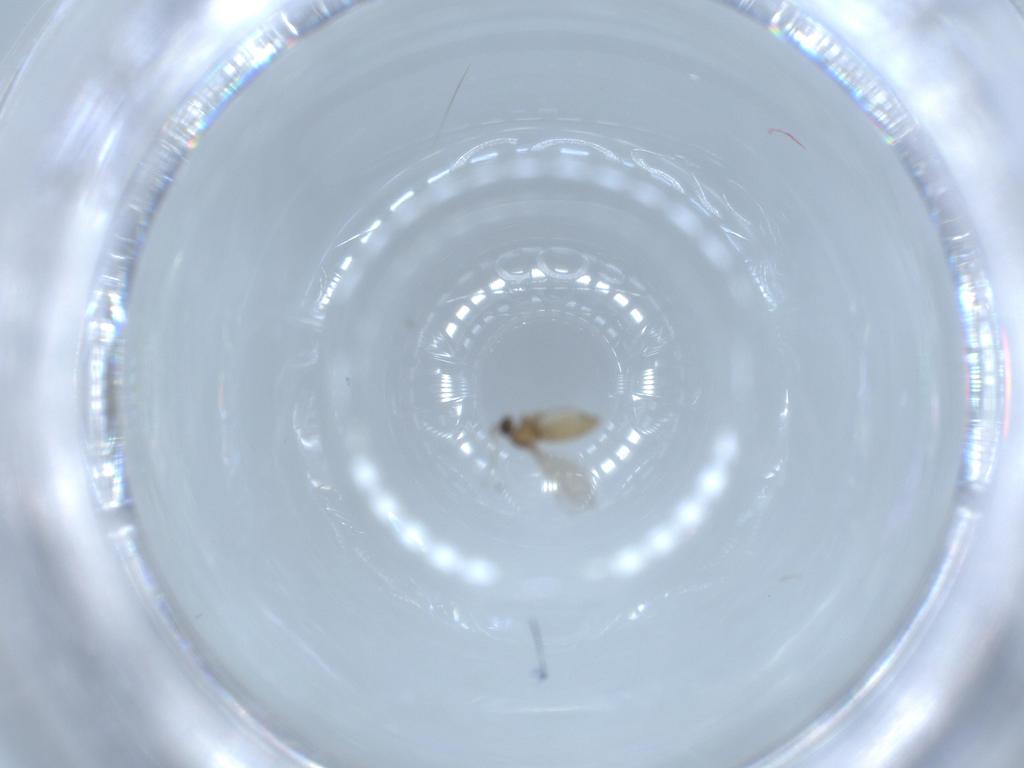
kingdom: Animalia
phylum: Arthropoda
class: Insecta
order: Diptera
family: Cecidomyiidae
